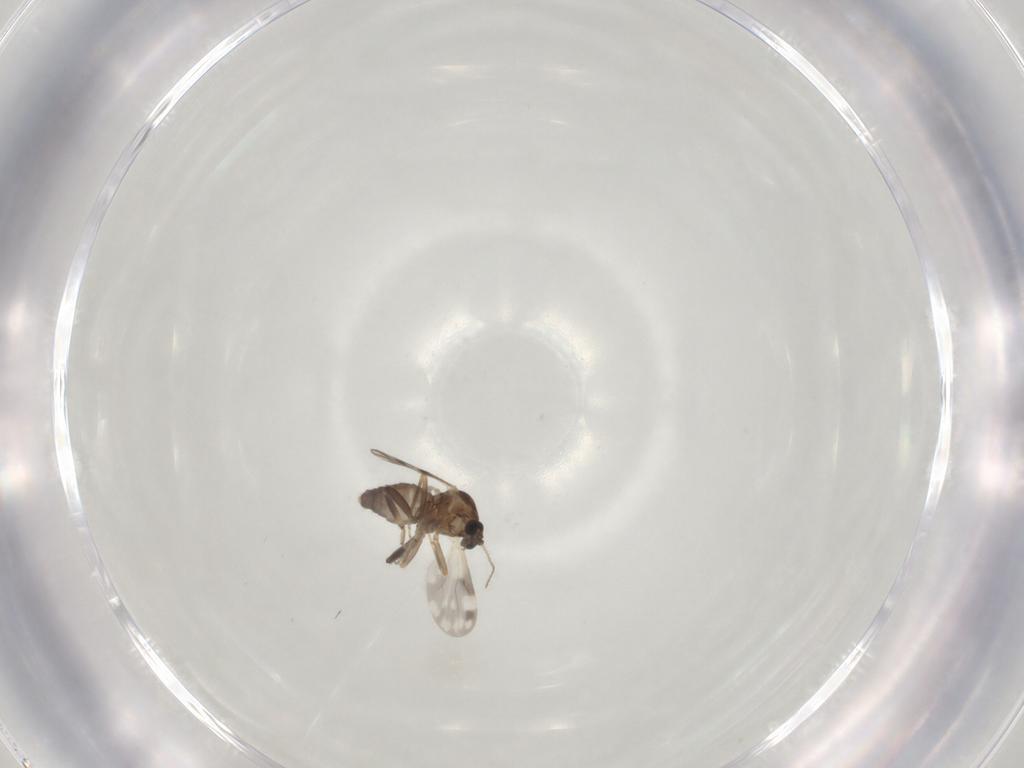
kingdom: Animalia
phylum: Arthropoda
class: Insecta
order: Diptera
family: Ceratopogonidae
